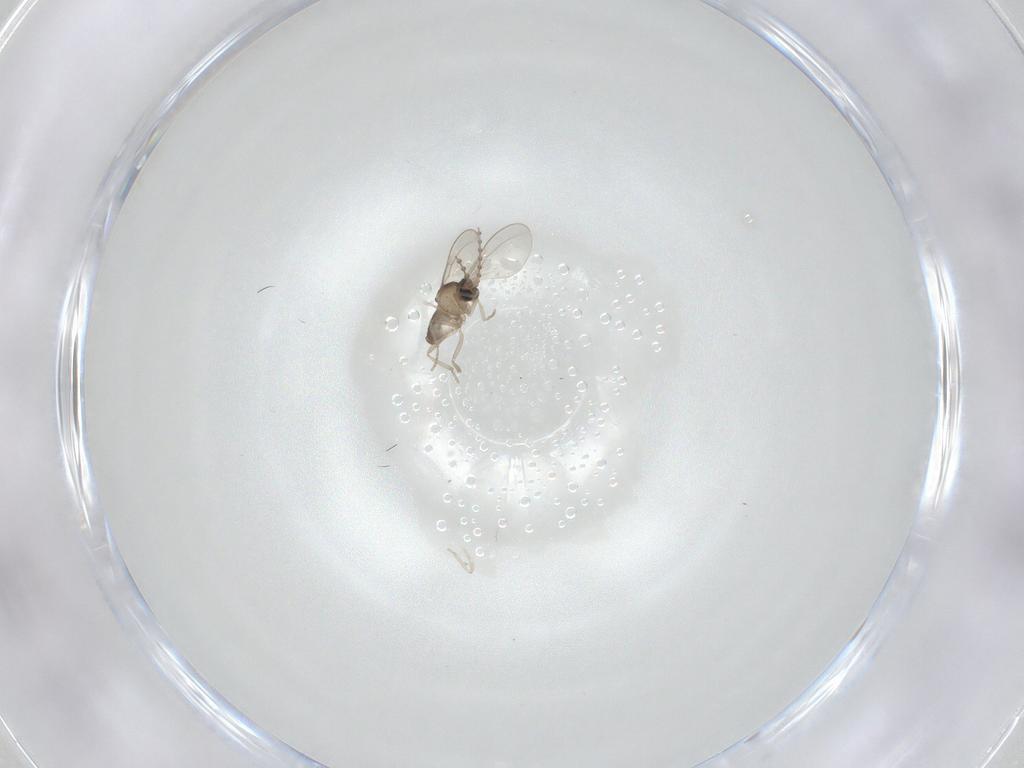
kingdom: Animalia
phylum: Arthropoda
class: Insecta
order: Diptera
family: Cecidomyiidae
